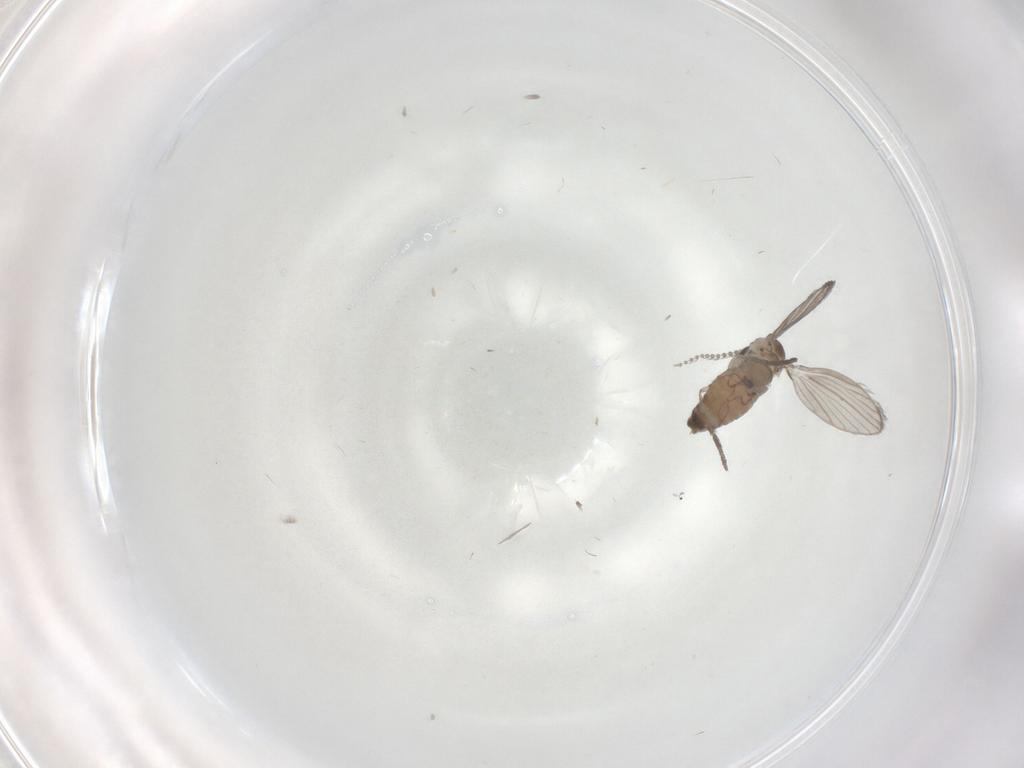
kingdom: Animalia
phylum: Arthropoda
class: Insecta
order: Diptera
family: Psychodidae
